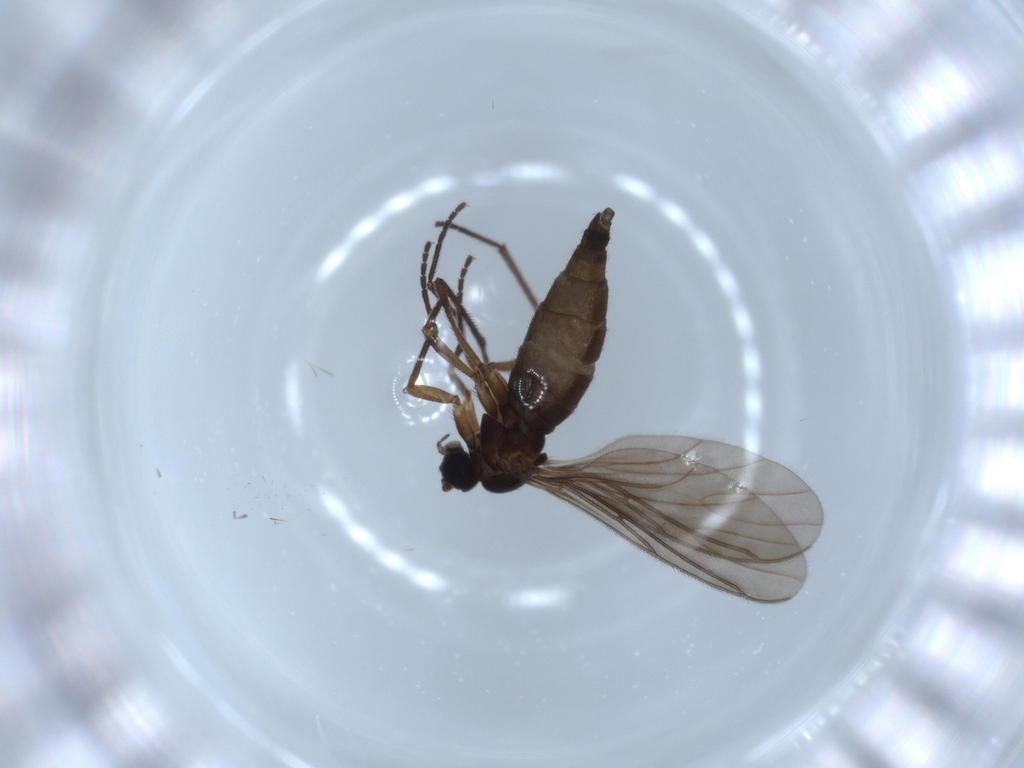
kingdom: Animalia
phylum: Arthropoda
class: Insecta
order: Diptera
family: Sciaridae
